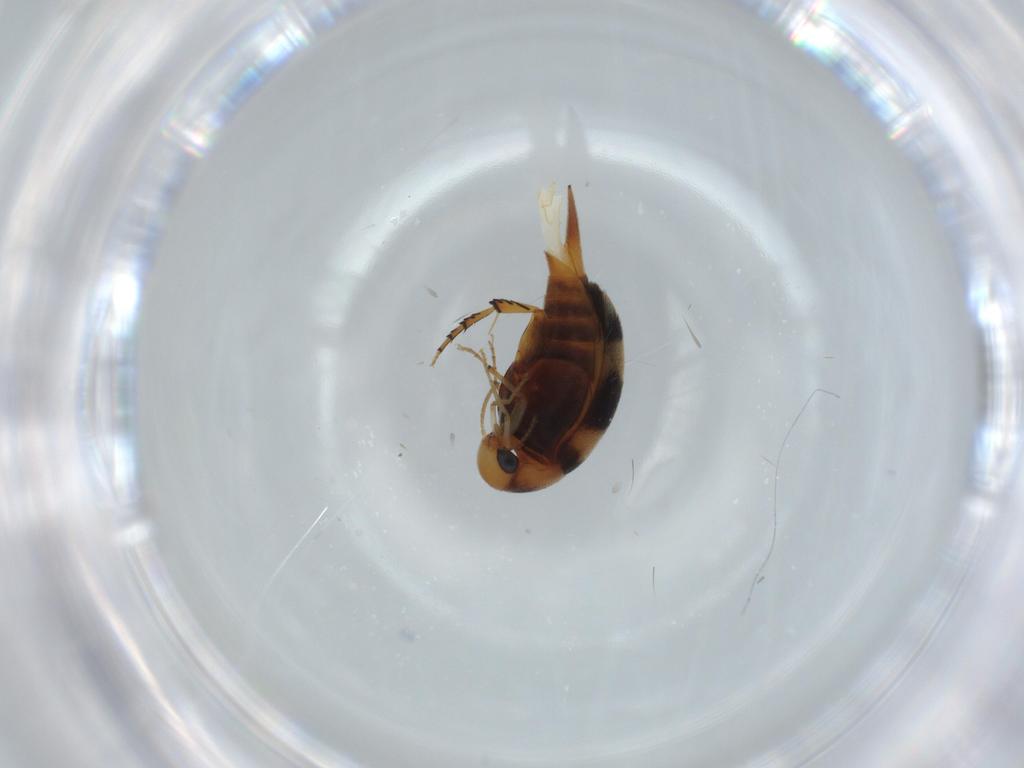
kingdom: Animalia
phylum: Arthropoda
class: Insecta
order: Coleoptera
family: Mordellidae
